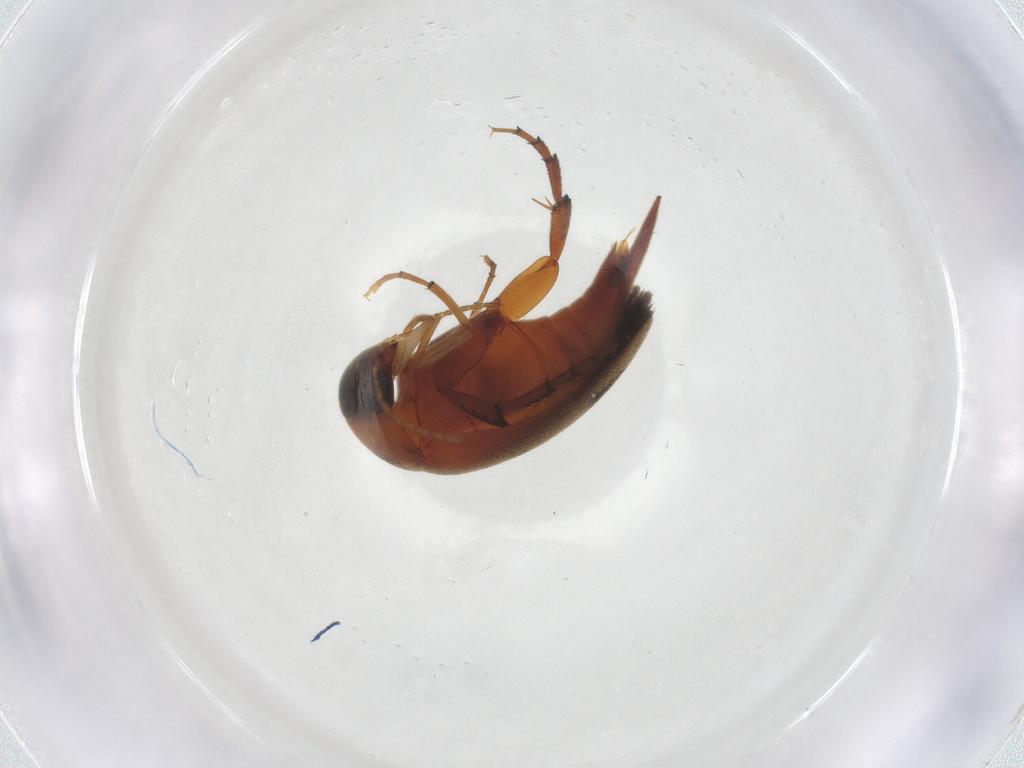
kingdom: Animalia
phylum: Arthropoda
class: Insecta
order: Coleoptera
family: Mordellidae
